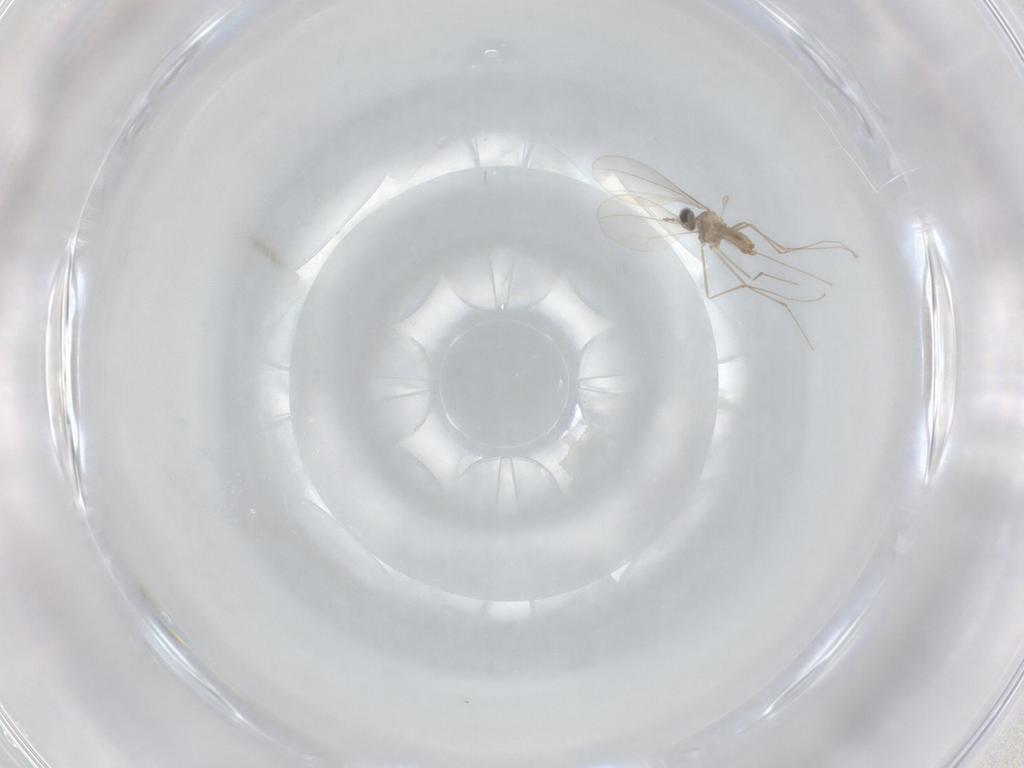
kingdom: Animalia
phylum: Arthropoda
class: Insecta
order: Diptera
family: Cecidomyiidae
